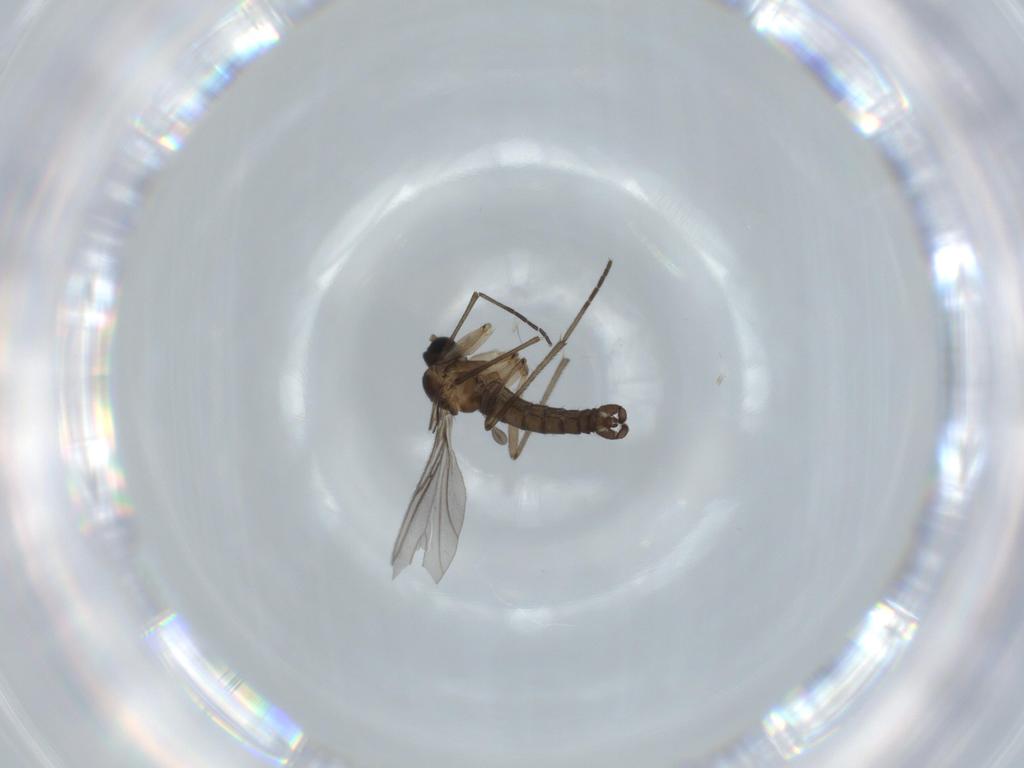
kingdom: Animalia
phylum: Arthropoda
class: Insecta
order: Diptera
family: Sciaridae
